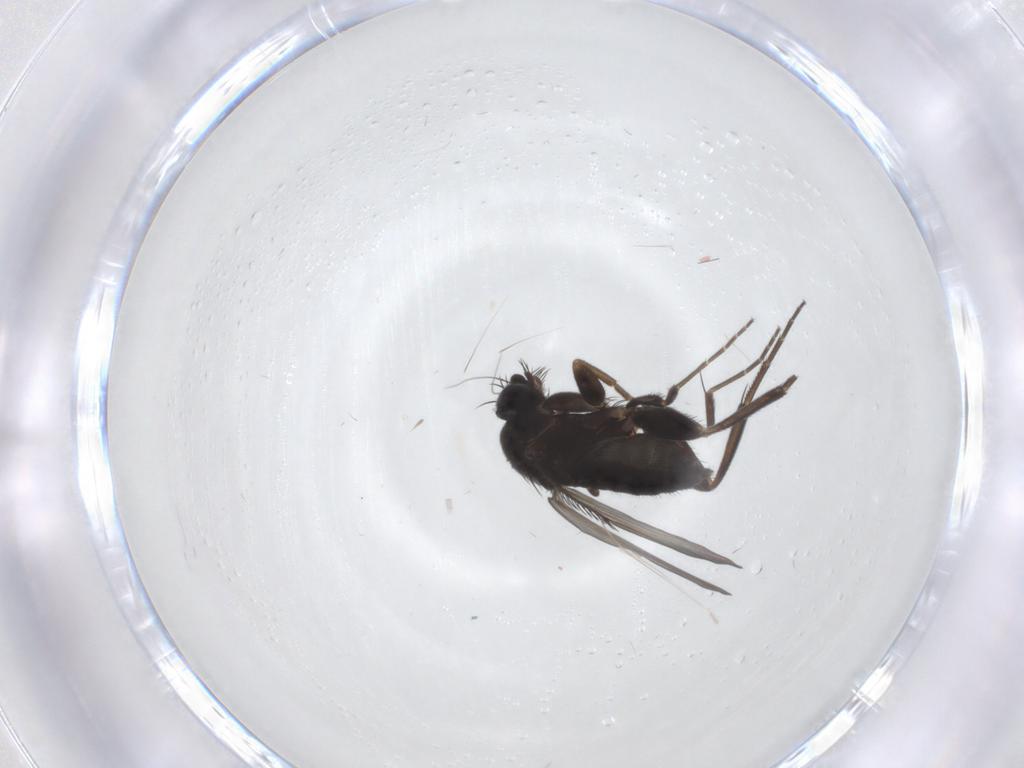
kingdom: Animalia
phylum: Arthropoda
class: Insecta
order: Diptera
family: Phoridae
